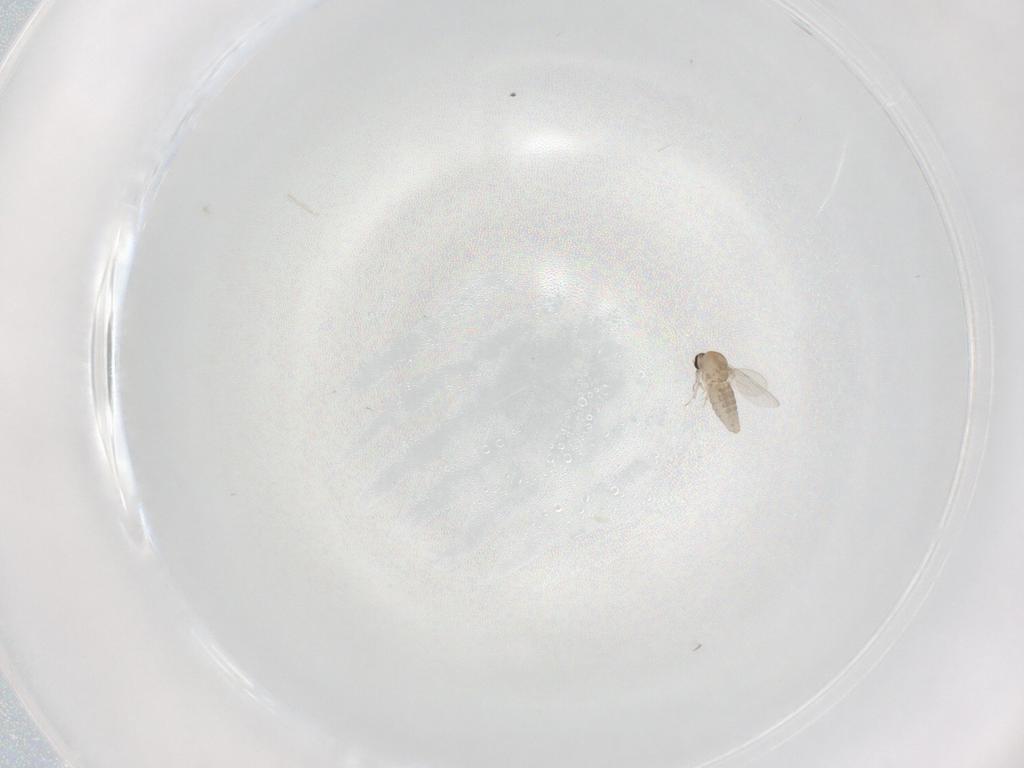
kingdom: Animalia
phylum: Arthropoda
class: Insecta
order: Diptera
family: Ceratopogonidae
